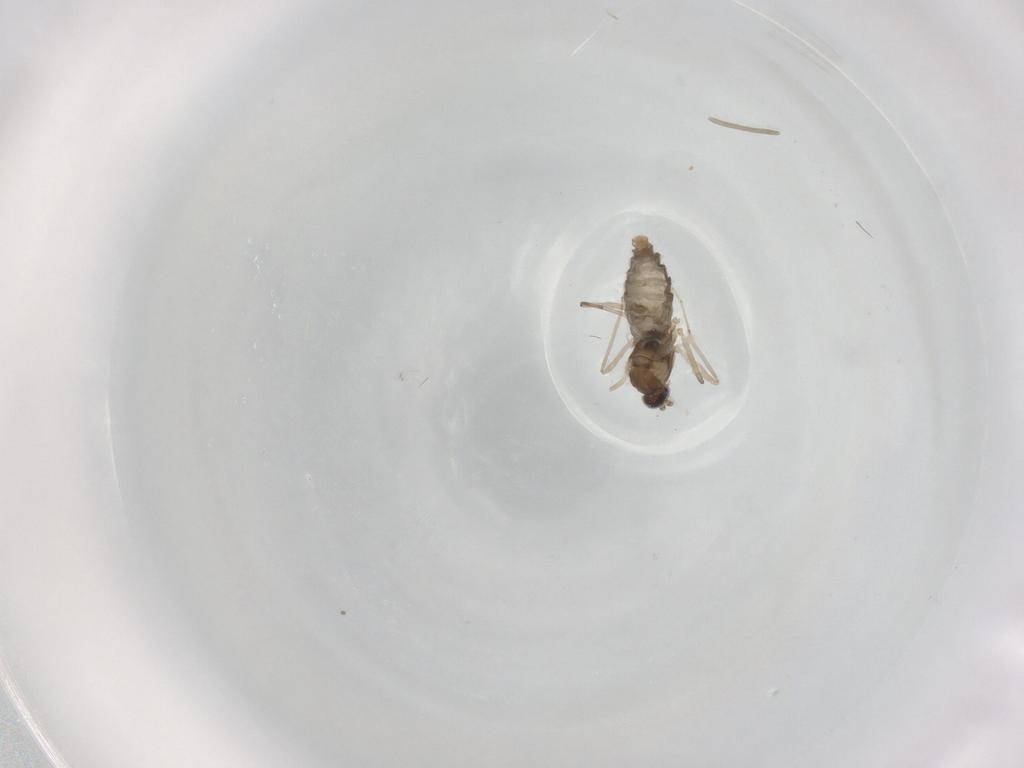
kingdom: Animalia
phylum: Arthropoda
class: Insecta
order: Diptera
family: Cecidomyiidae
